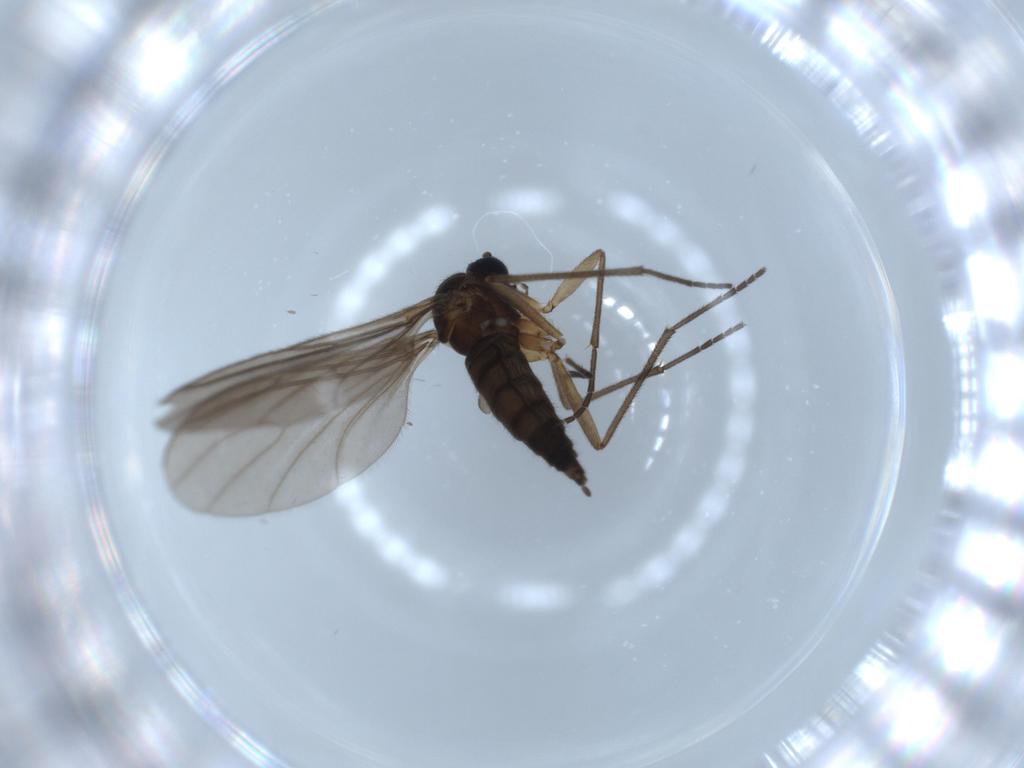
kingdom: Animalia
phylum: Arthropoda
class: Insecta
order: Diptera
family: Sciaridae
